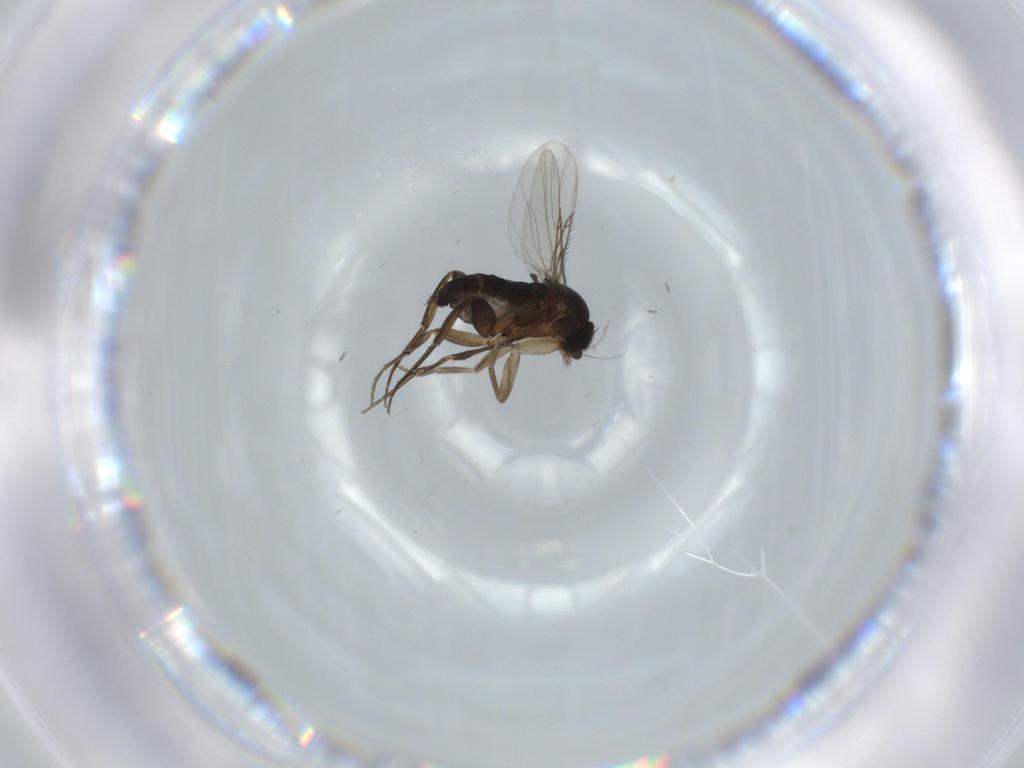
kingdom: Animalia
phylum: Arthropoda
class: Insecta
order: Diptera
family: Phoridae
